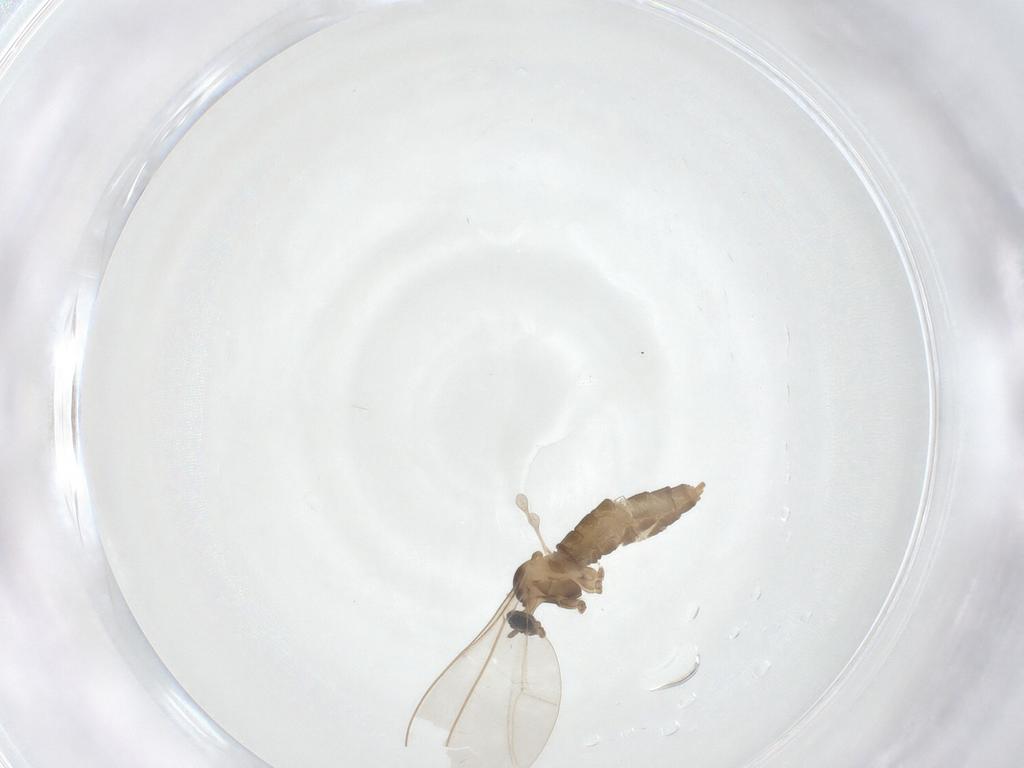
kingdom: Animalia
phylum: Arthropoda
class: Insecta
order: Diptera
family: Cecidomyiidae
